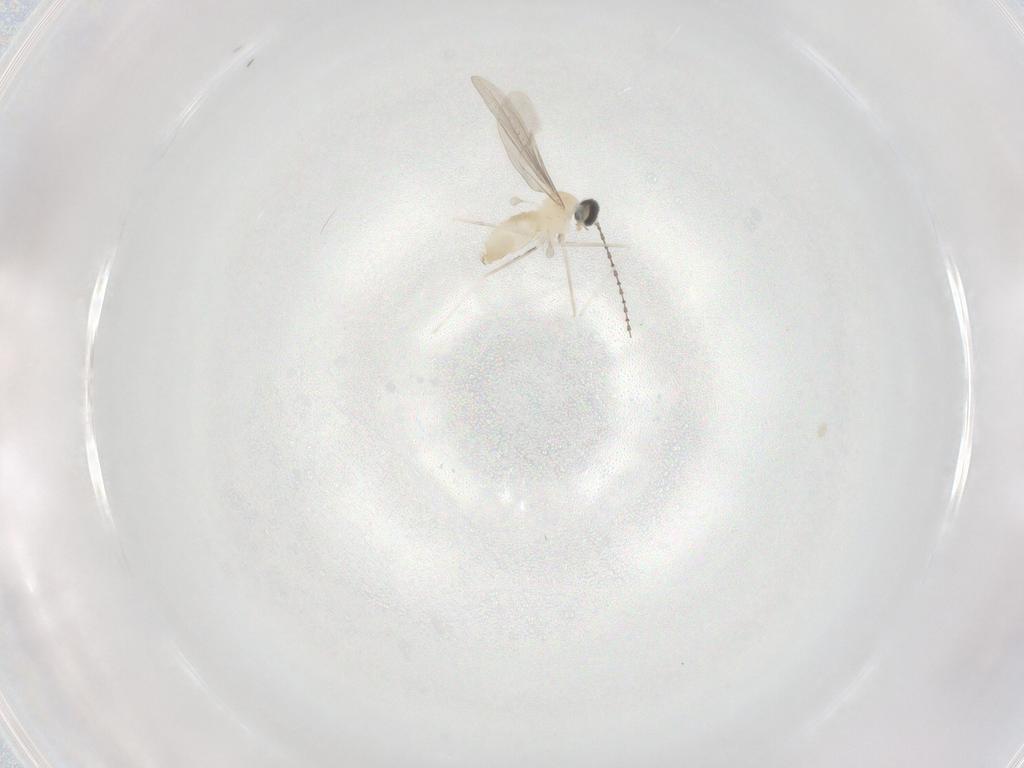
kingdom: Animalia
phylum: Arthropoda
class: Insecta
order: Diptera
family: Cecidomyiidae
